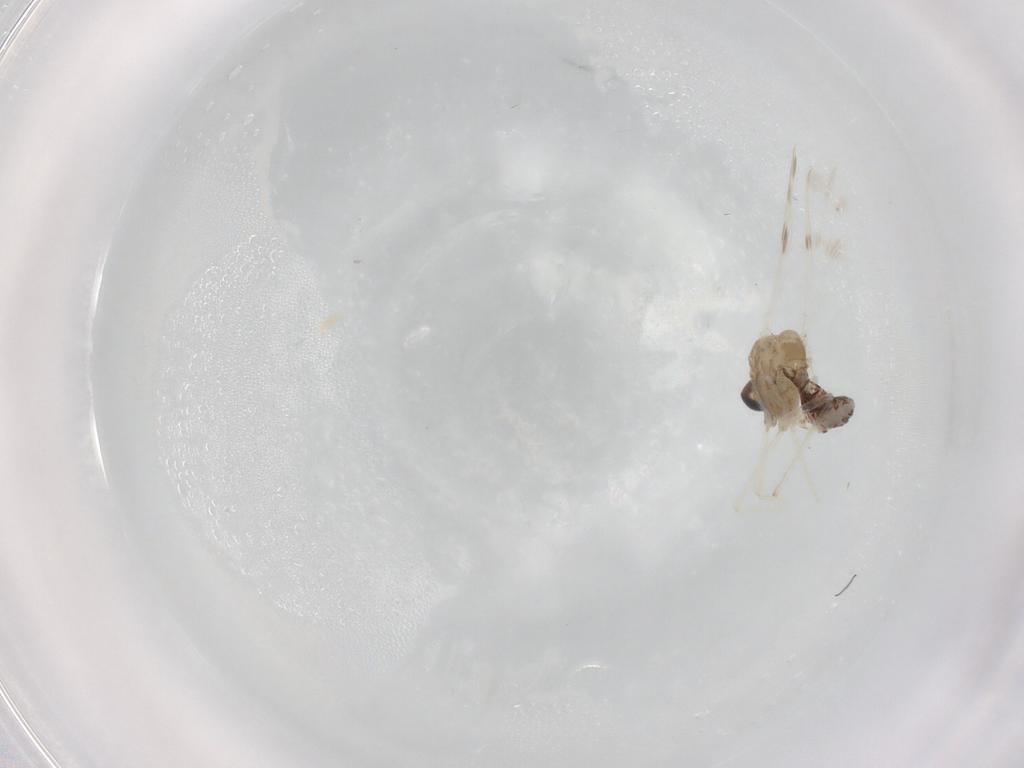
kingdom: Animalia
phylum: Arthropoda
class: Insecta
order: Diptera
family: Chironomidae
